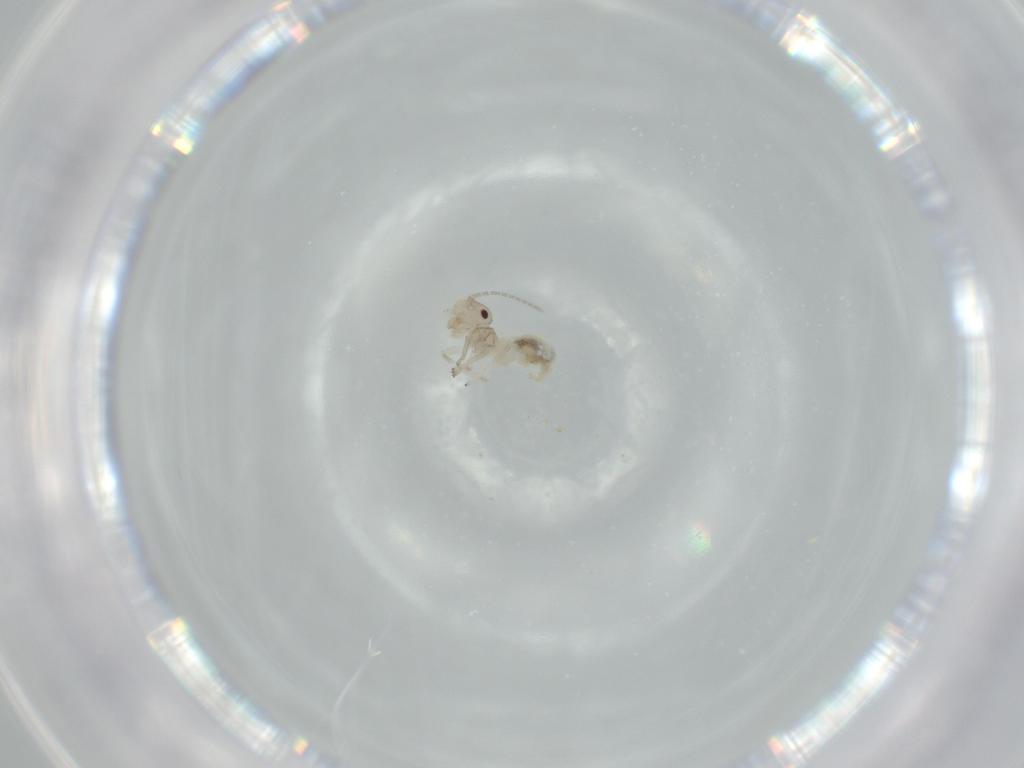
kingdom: Animalia
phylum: Arthropoda
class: Insecta
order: Psocodea
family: Amphipsocidae
